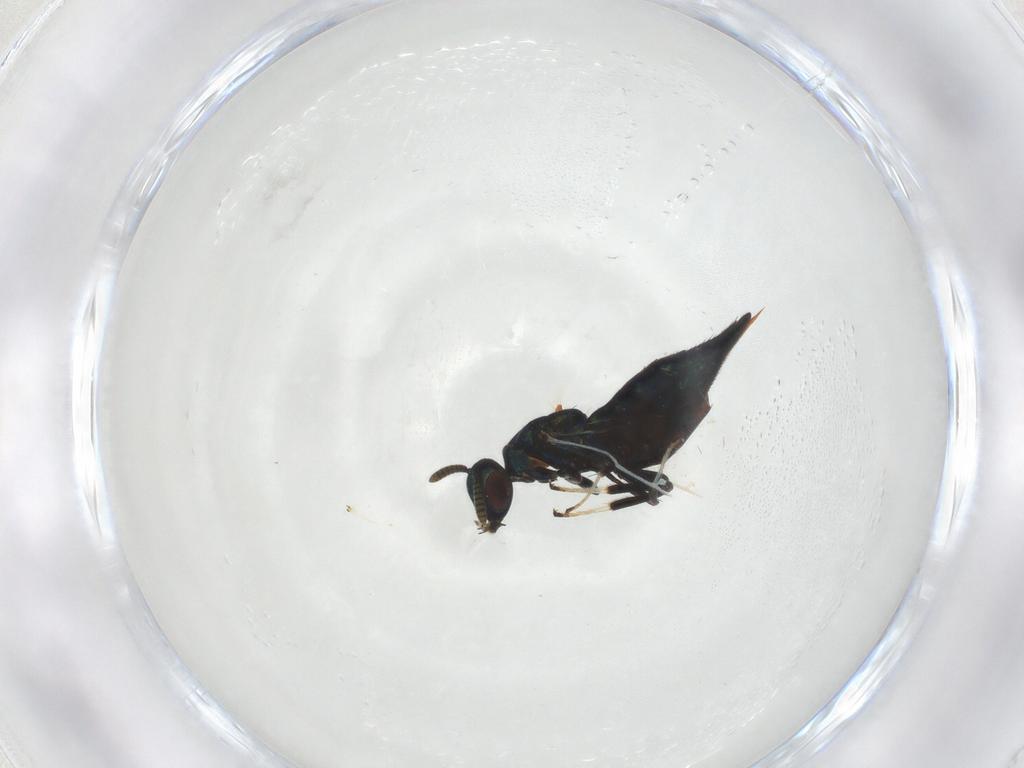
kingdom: Animalia
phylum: Arthropoda
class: Insecta
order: Hymenoptera
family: Pteromalidae
